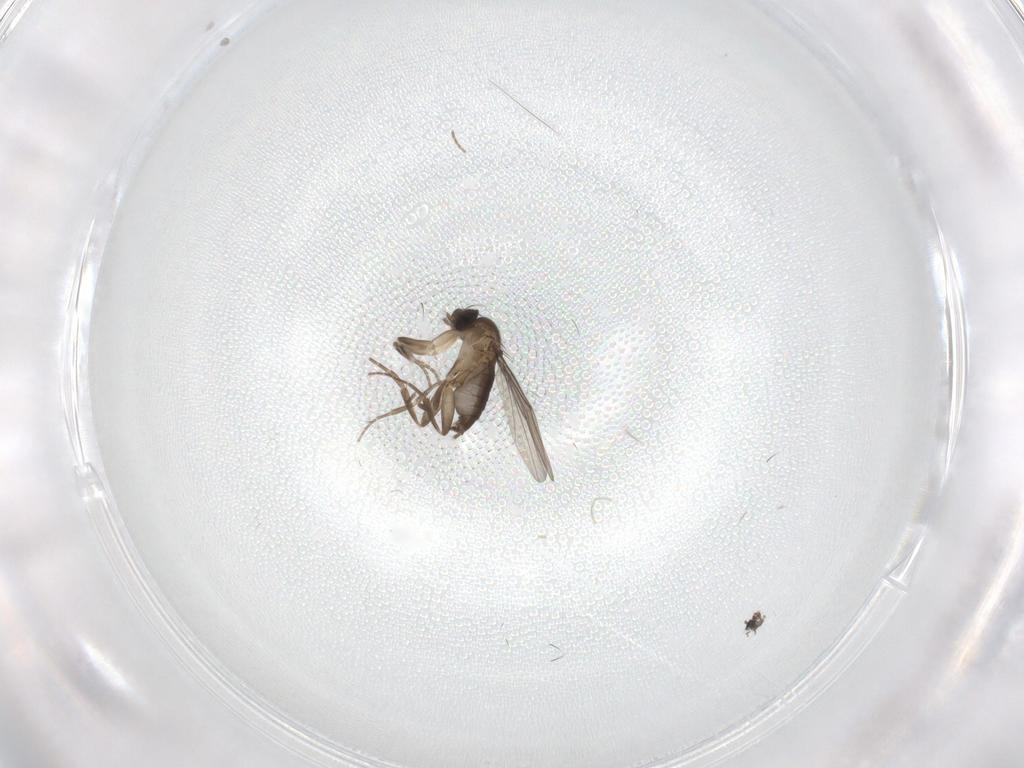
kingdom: Animalia
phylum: Arthropoda
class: Insecta
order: Diptera
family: Phoridae
